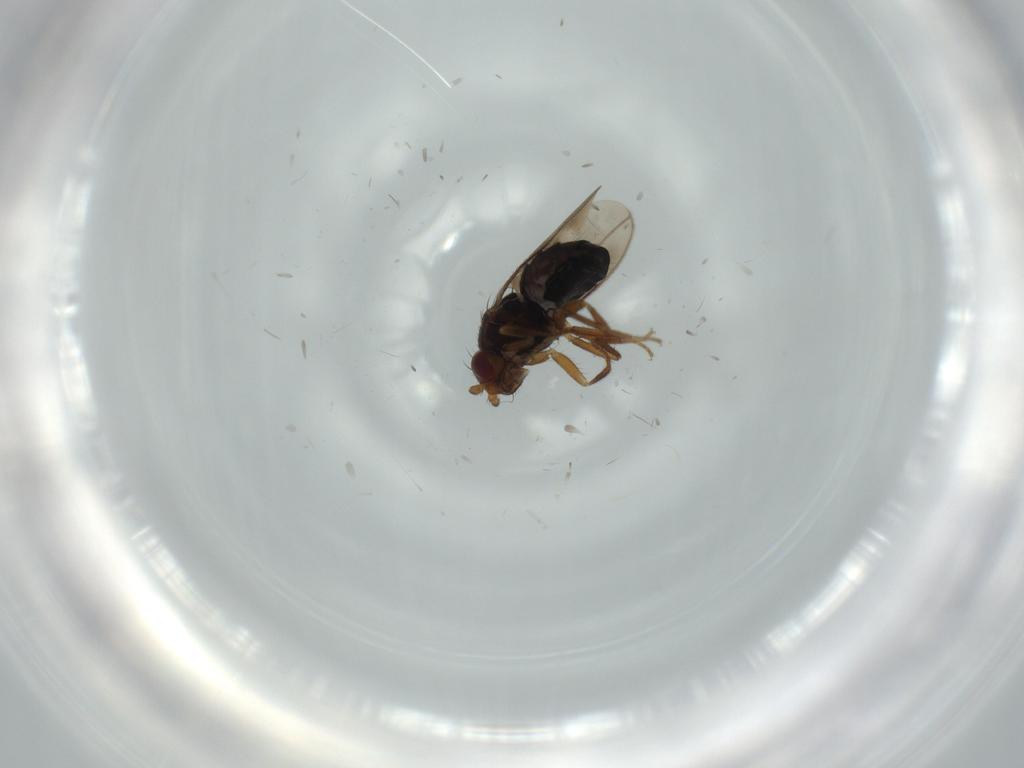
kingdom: Animalia
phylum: Arthropoda
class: Insecta
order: Diptera
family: Sphaeroceridae
